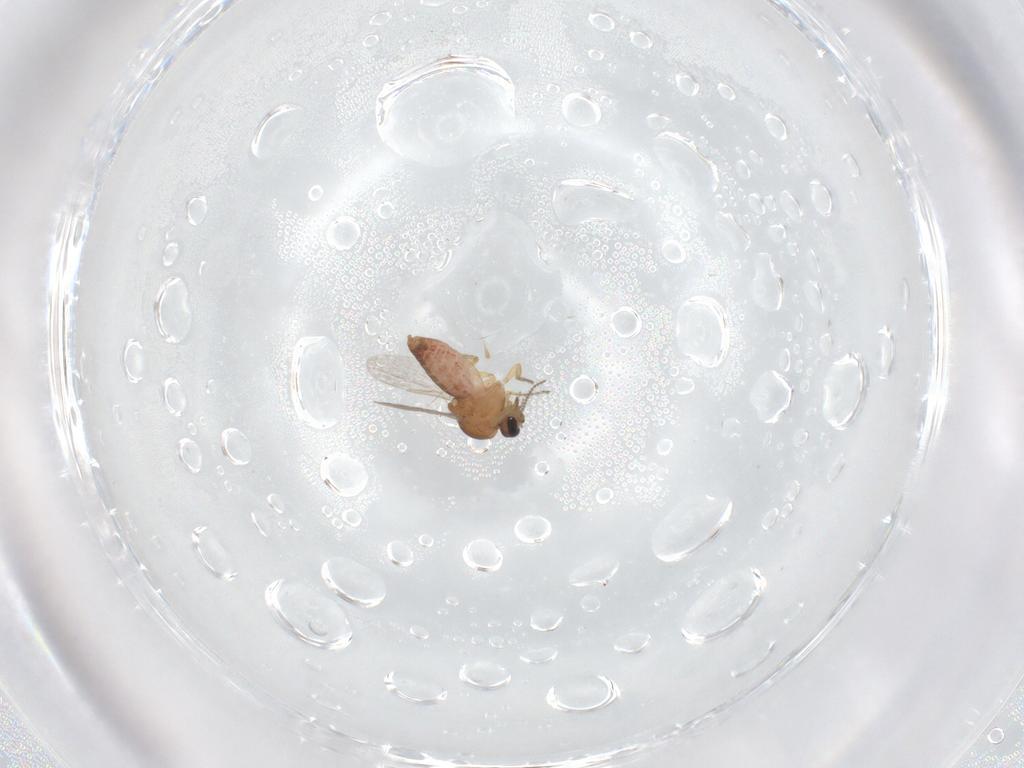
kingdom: Animalia
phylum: Arthropoda
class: Insecta
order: Diptera
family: Ceratopogonidae
